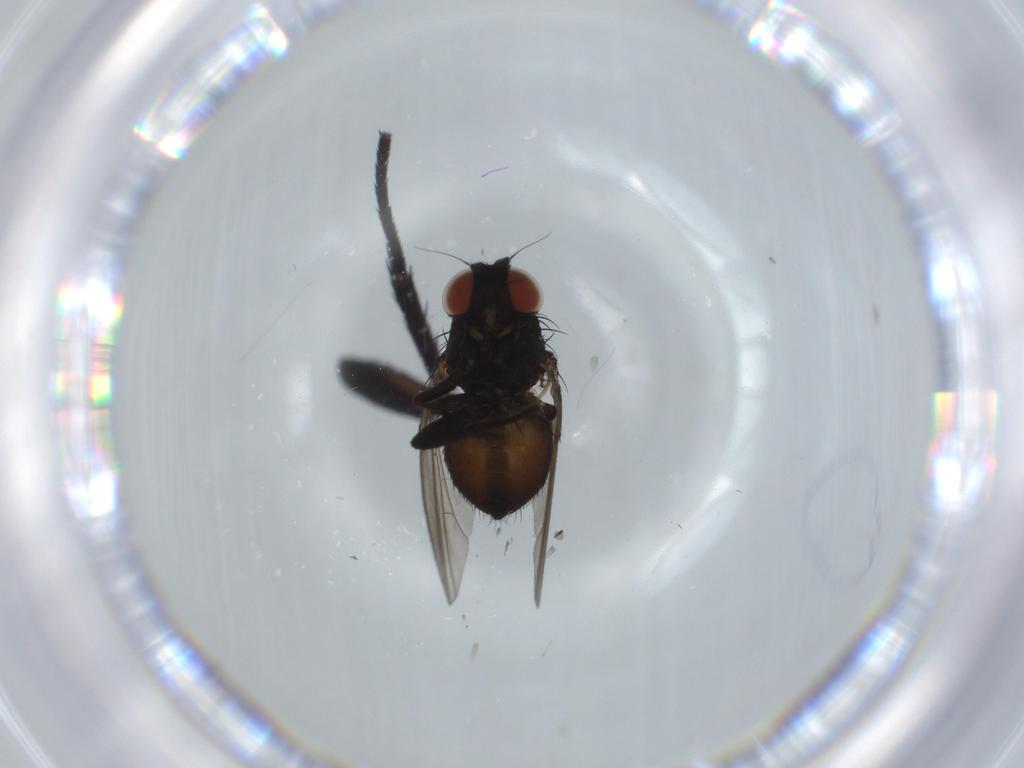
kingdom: Animalia
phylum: Arthropoda
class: Insecta
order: Diptera
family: Milichiidae
